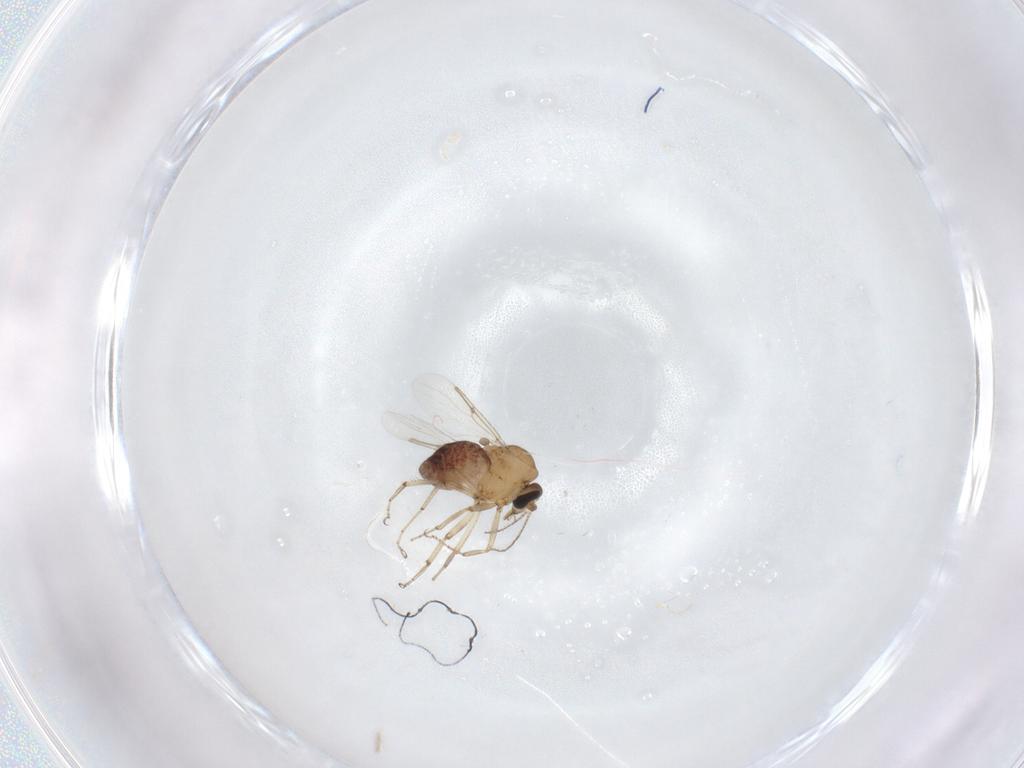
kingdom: Animalia
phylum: Arthropoda
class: Insecta
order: Diptera
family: Ceratopogonidae
